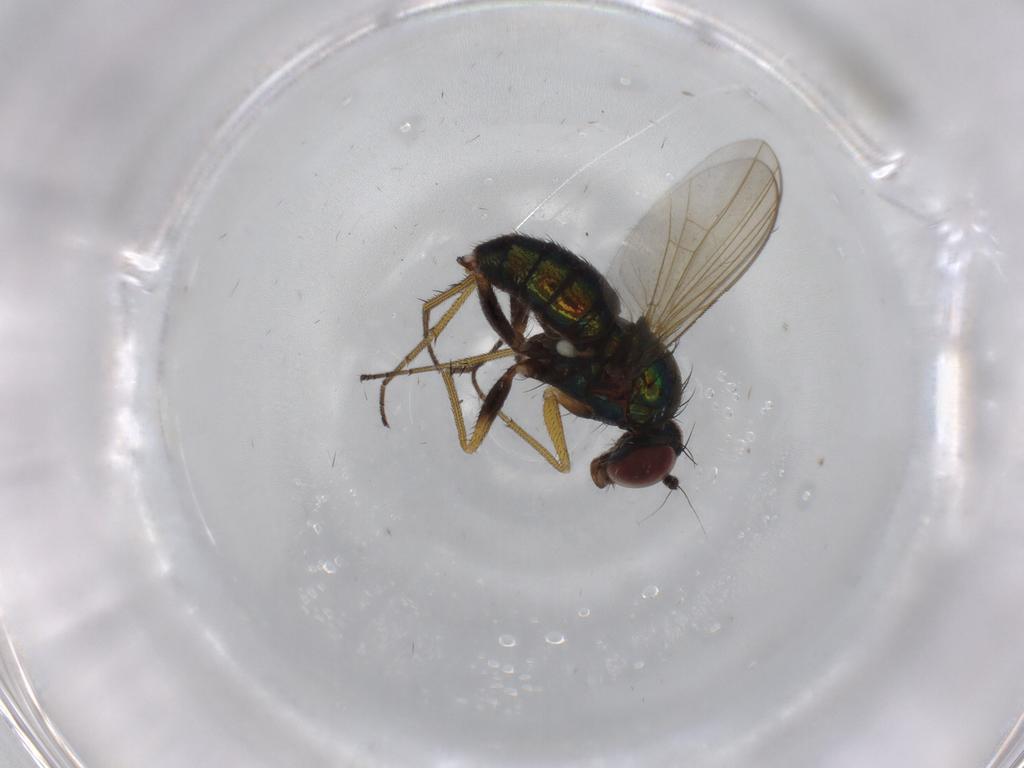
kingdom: Animalia
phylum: Arthropoda
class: Insecta
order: Diptera
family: Dolichopodidae
